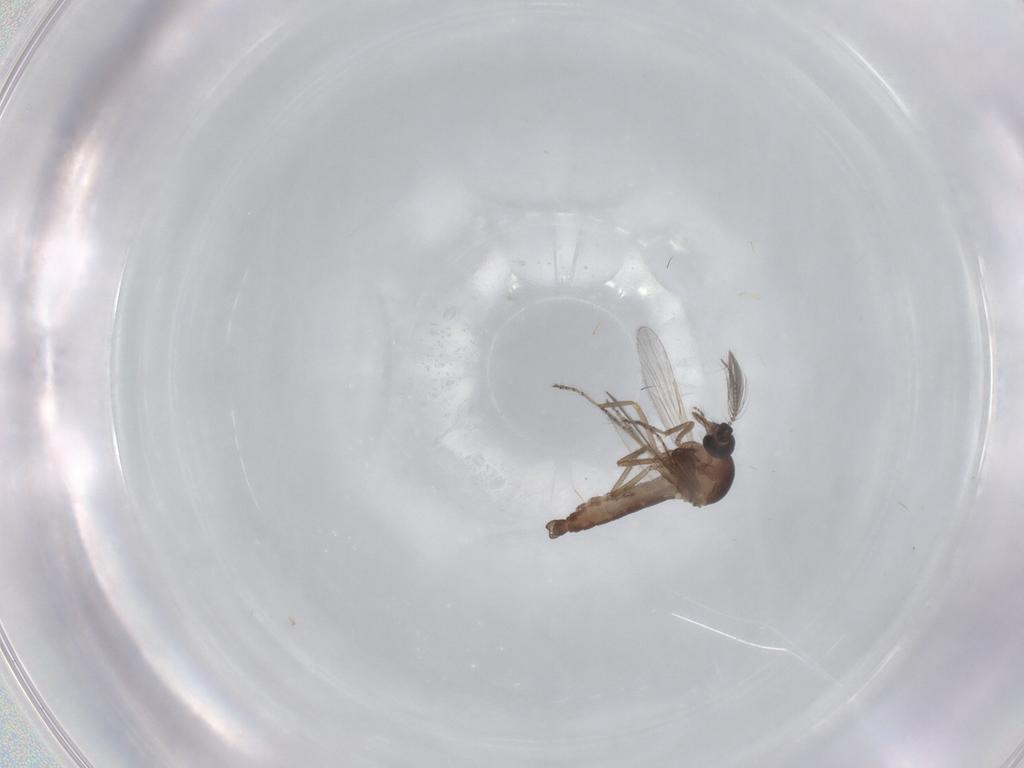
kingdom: Animalia
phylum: Arthropoda
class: Insecta
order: Diptera
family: Ceratopogonidae
